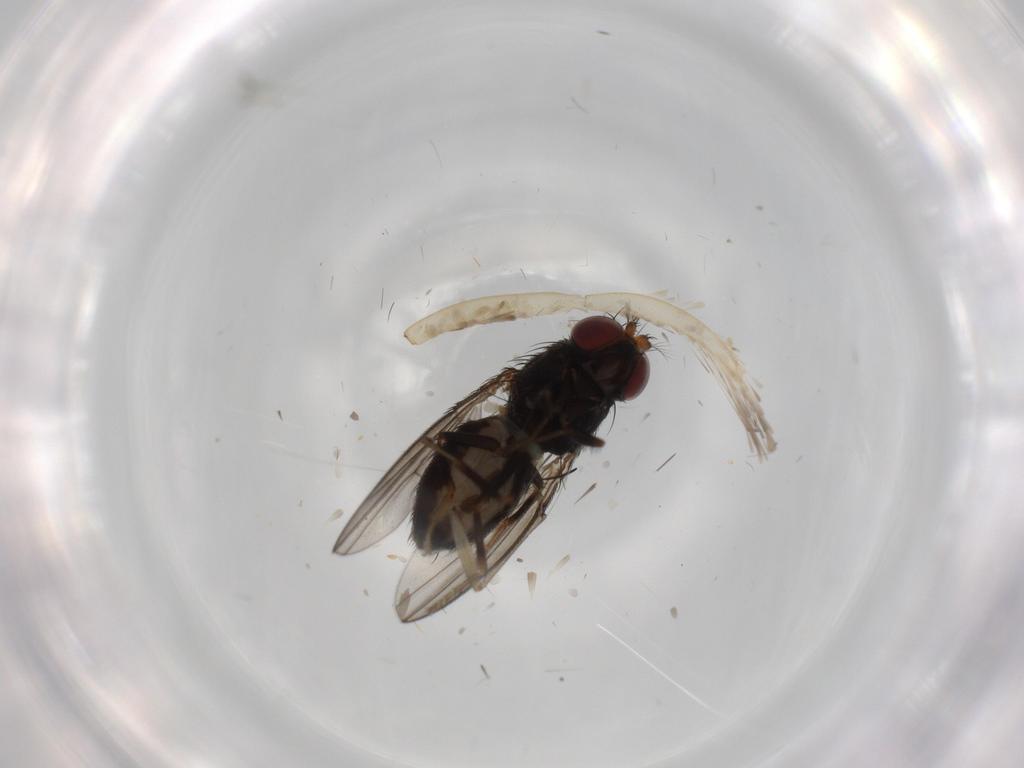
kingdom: Animalia
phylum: Arthropoda
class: Insecta
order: Diptera
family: Ephydridae
